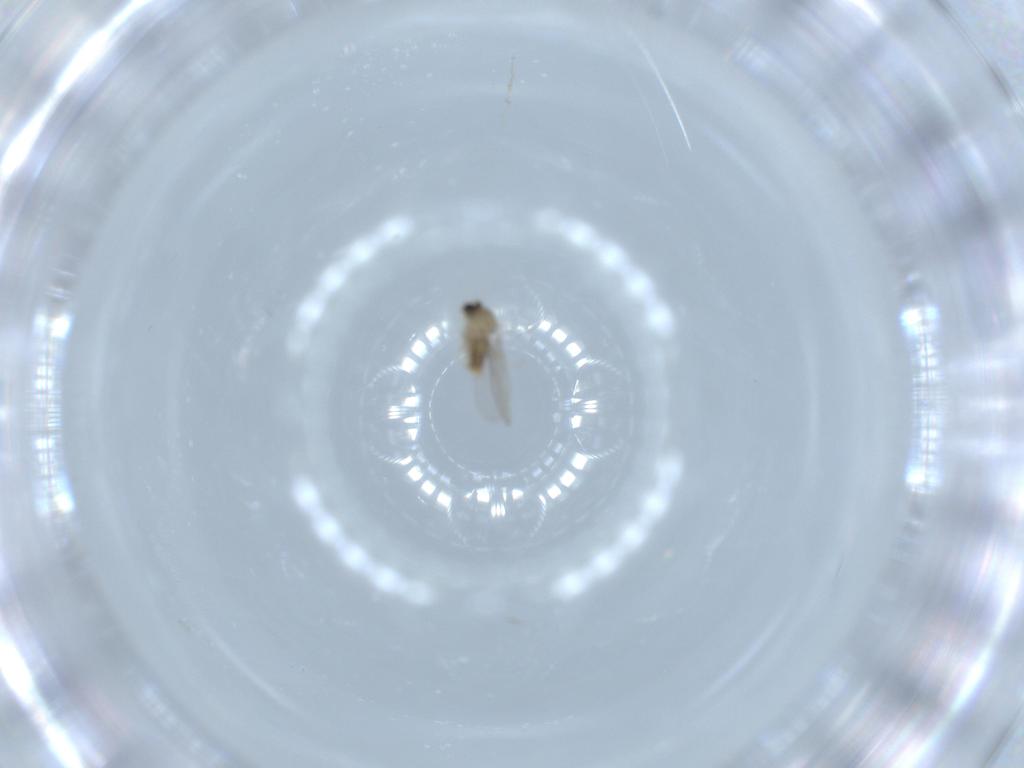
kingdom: Animalia
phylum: Arthropoda
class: Insecta
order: Diptera
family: Cecidomyiidae
